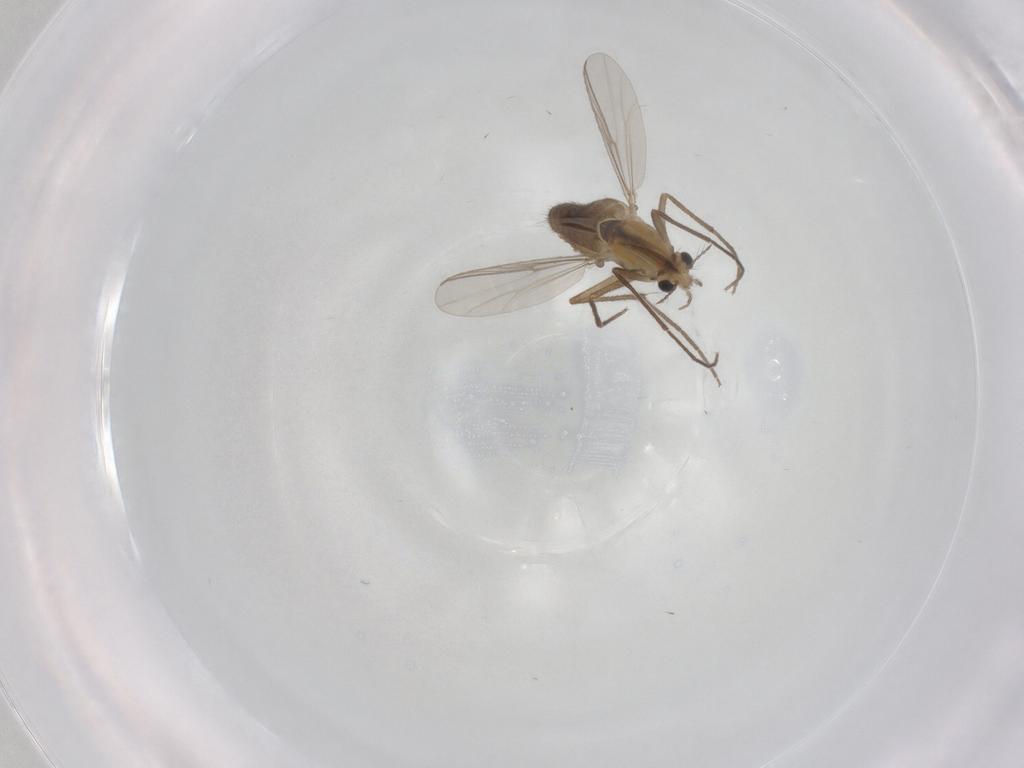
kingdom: Animalia
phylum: Arthropoda
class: Insecta
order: Diptera
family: Chironomidae
